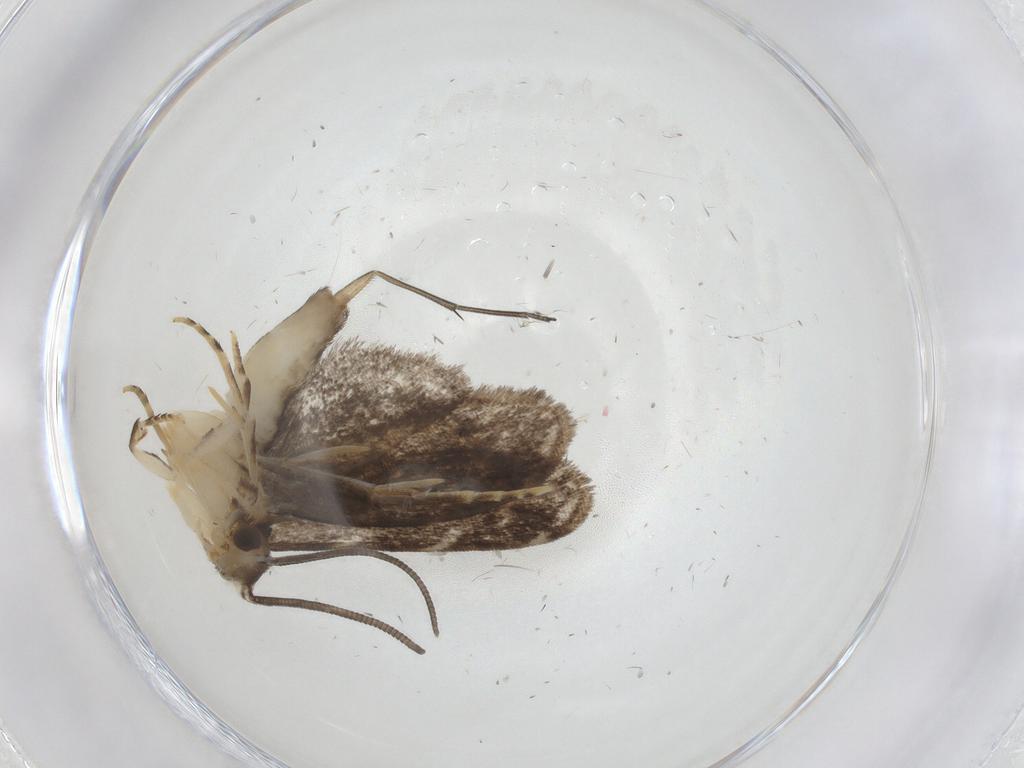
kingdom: Animalia
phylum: Arthropoda
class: Insecta
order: Lepidoptera
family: Dryadaulidae
